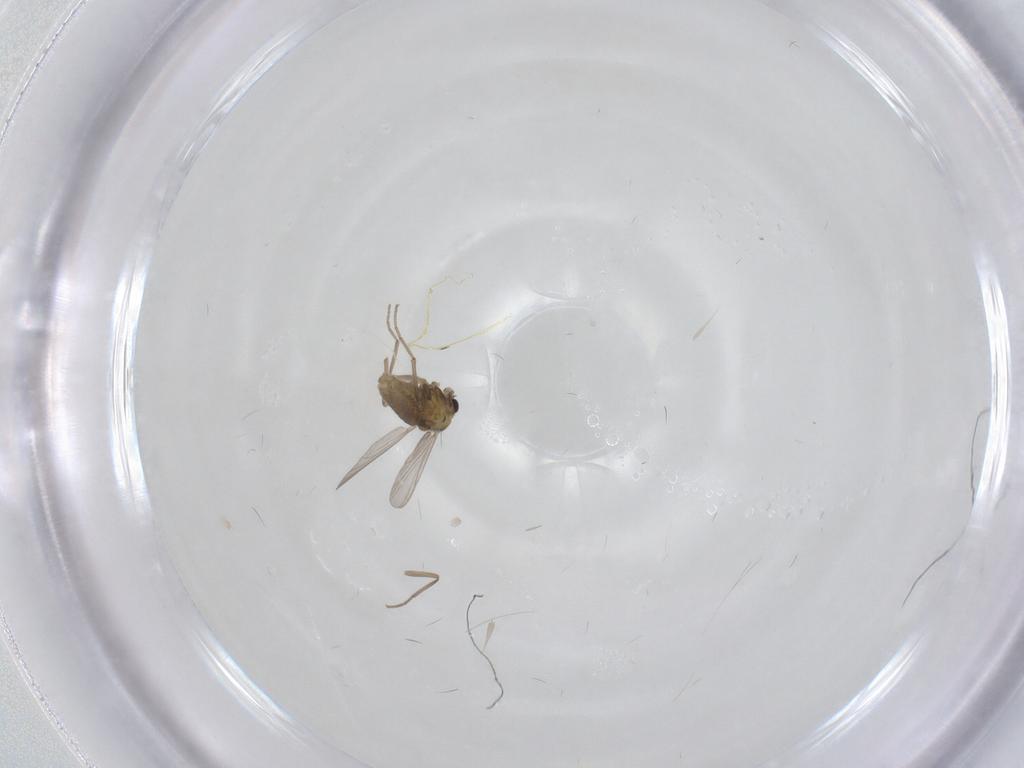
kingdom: Animalia
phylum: Arthropoda
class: Insecta
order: Diptera
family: Chironomidae
